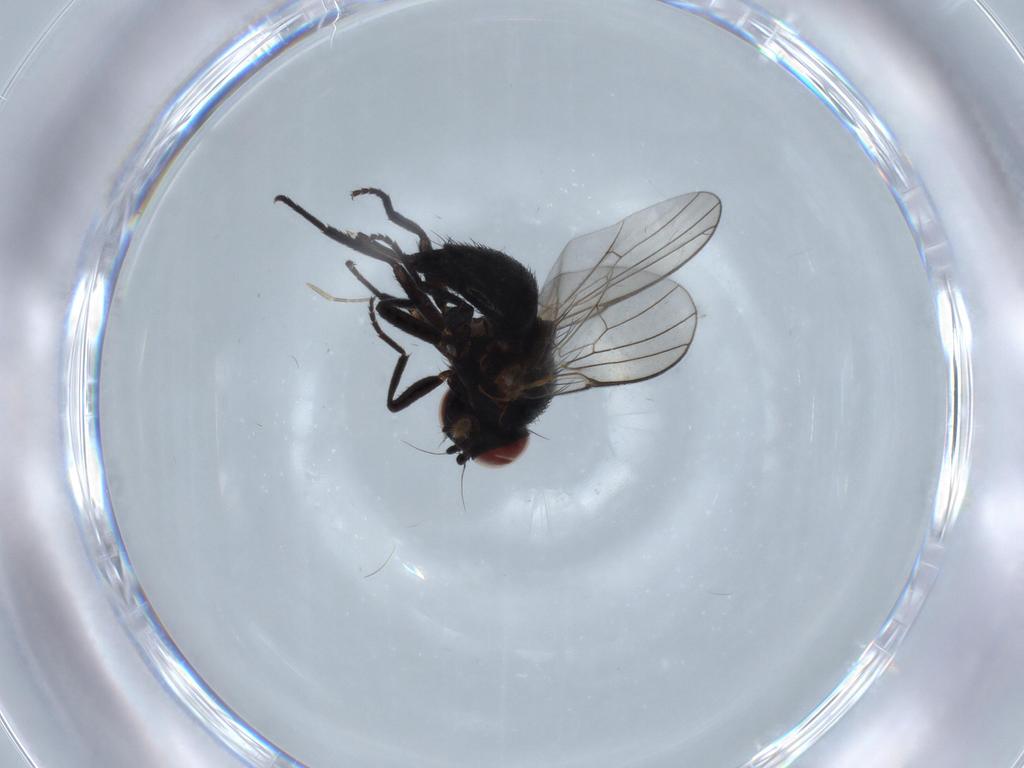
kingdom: Animalia
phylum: Arthropoda
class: Insecta
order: Diptera
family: Agromyzidae
